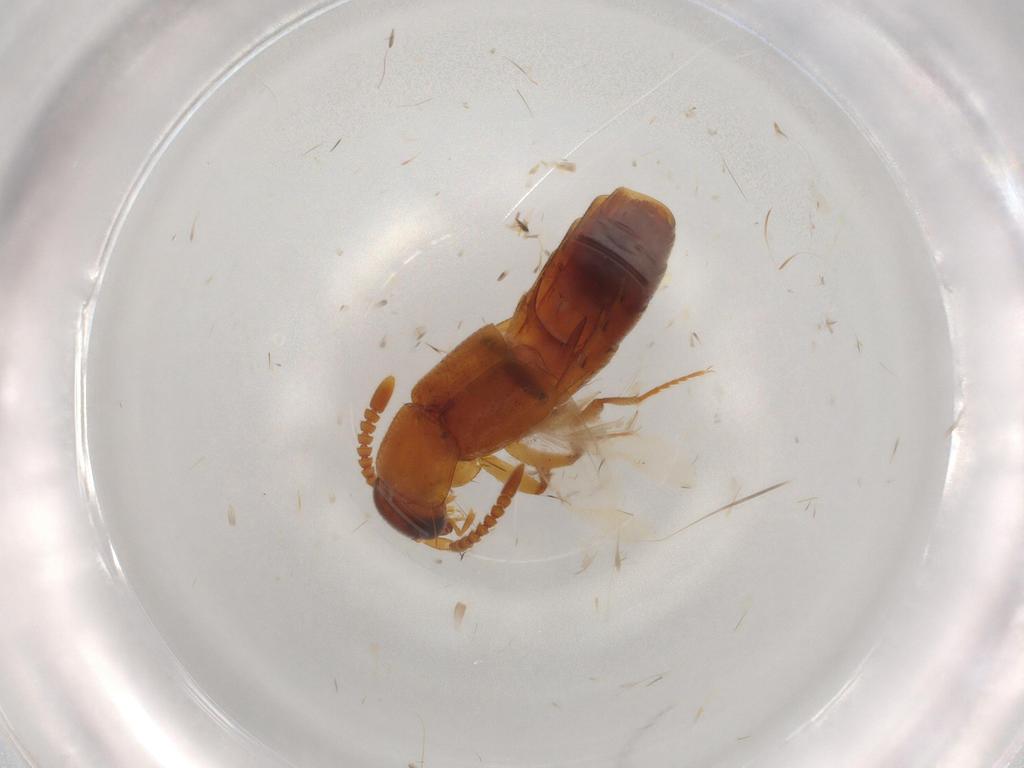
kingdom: Animalia
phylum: Arthropoda
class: Insecta
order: Coleoptera
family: Staphylinidae
